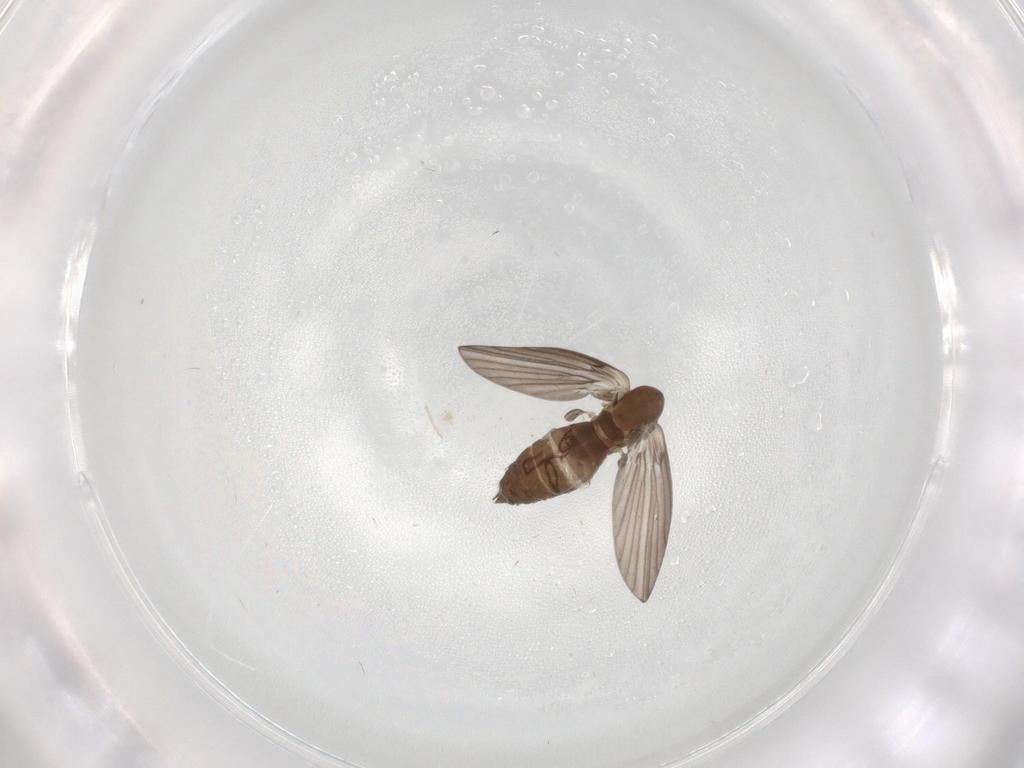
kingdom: Animalia
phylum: Arthropoda
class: Insecta
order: Diptera
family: Psychodidae
